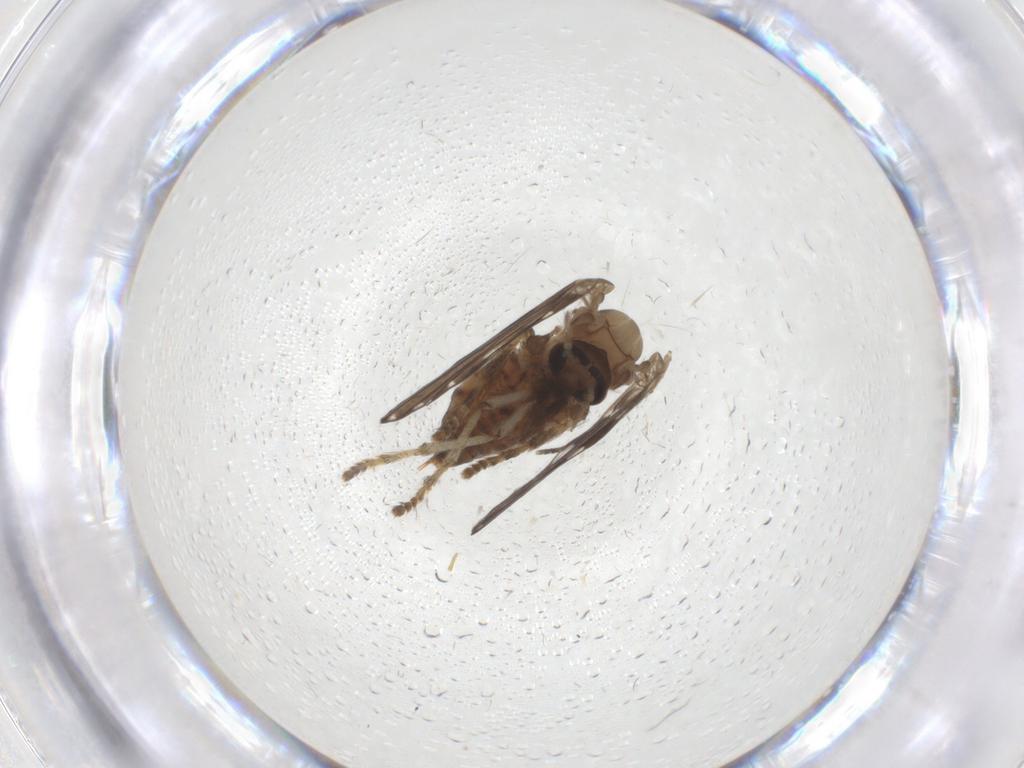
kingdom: Animalia
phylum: Arthropoda
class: Insecta
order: Diptera
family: Psychodidae
